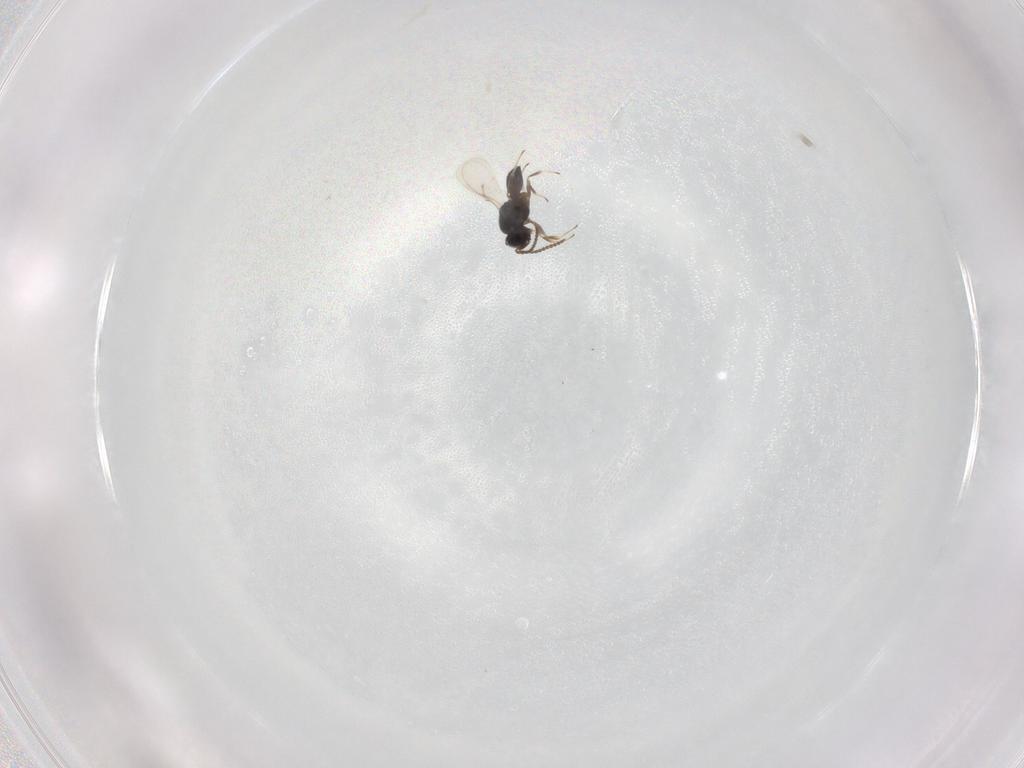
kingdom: Animalia
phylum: Arthropoda
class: Insecta
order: Hymenoptera
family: Scelionidae
